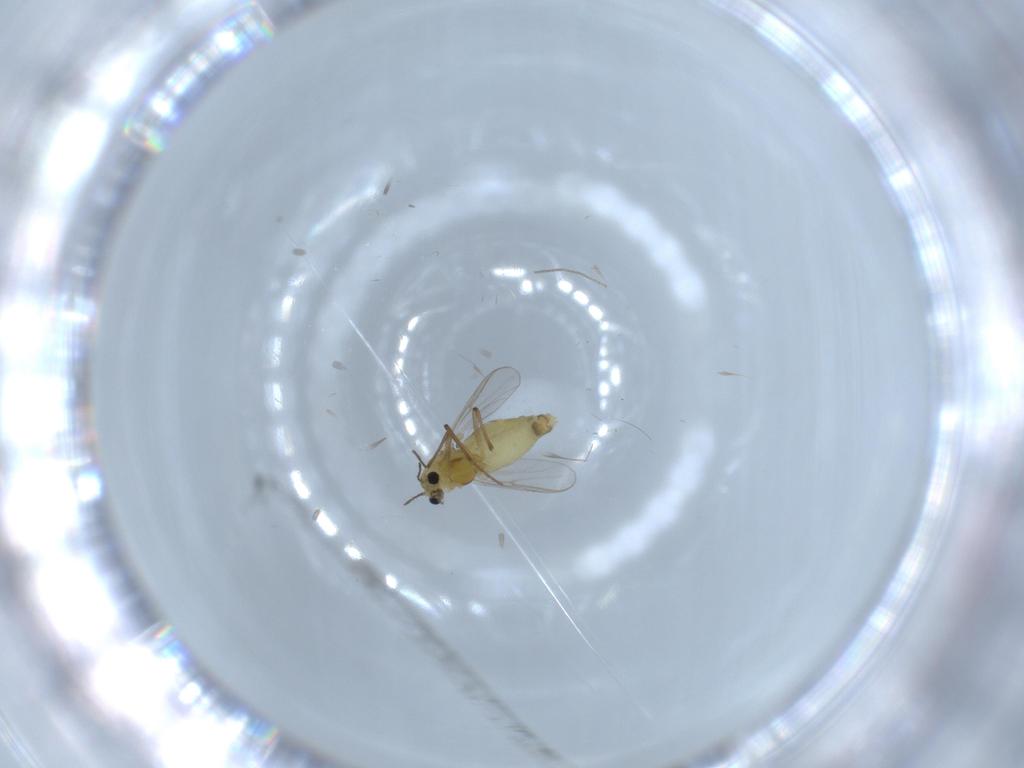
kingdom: Animalia
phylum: Arthropoda
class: Insecta
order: Diptera
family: Chironomidae
